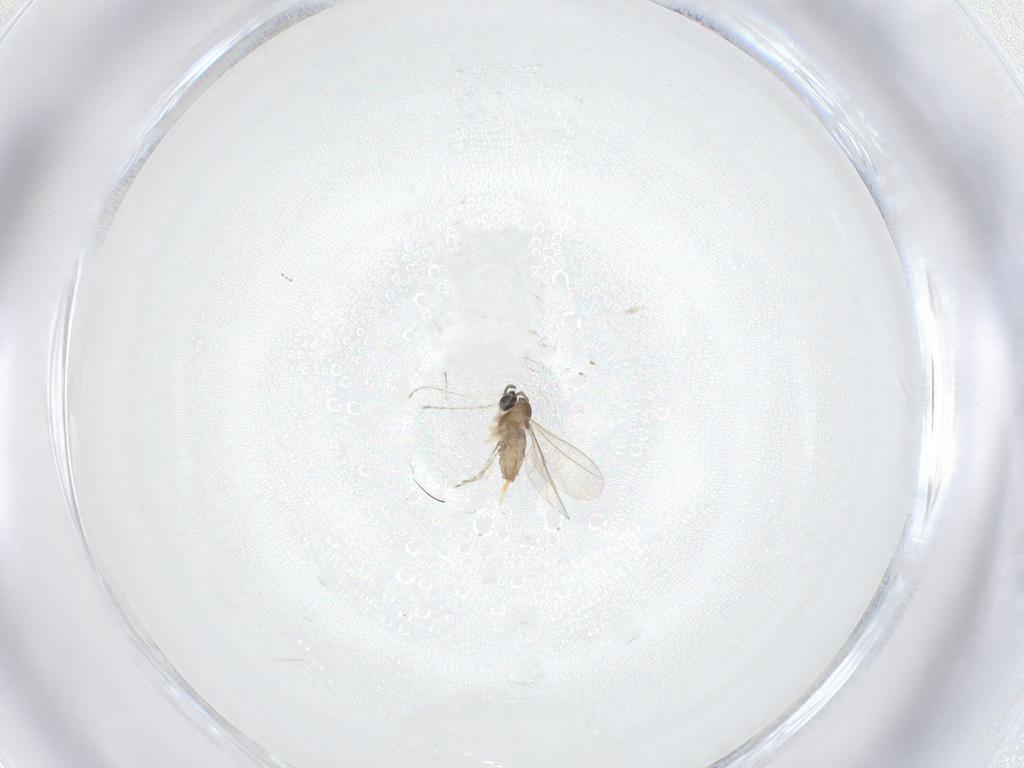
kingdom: Animalia
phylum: Arthropoda
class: Insecta
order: Diptera
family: Cecidomyiidae
